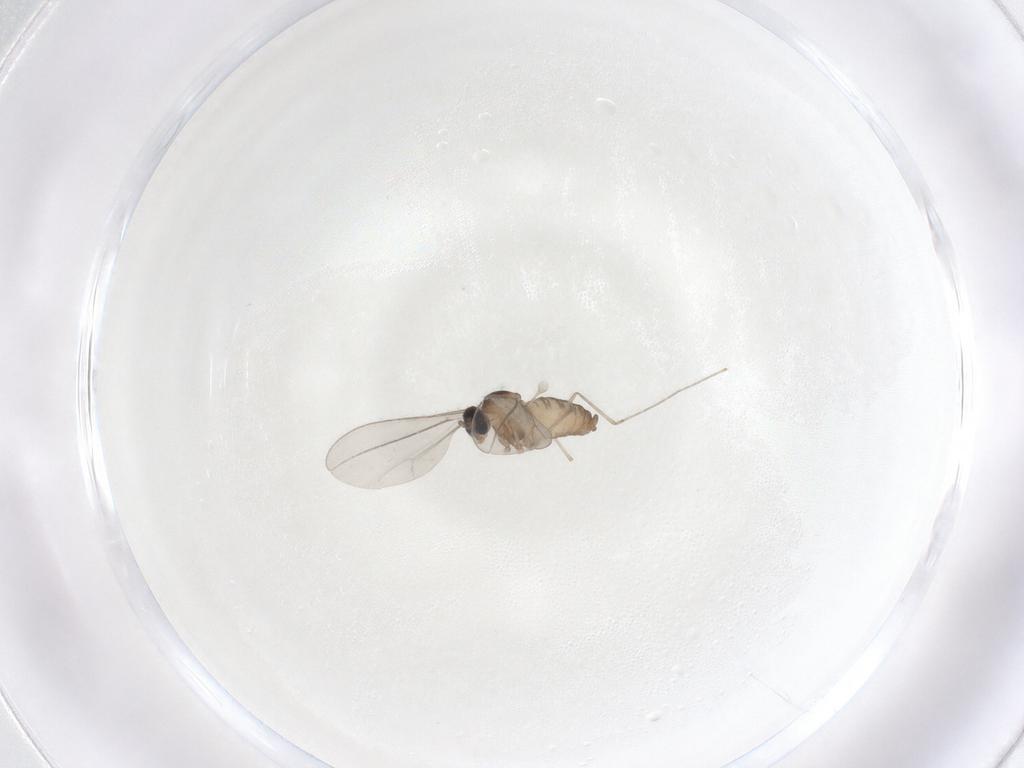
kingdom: Animalia
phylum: Arthropoda
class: Insecta
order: Diptera
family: Cecidomyiidae
